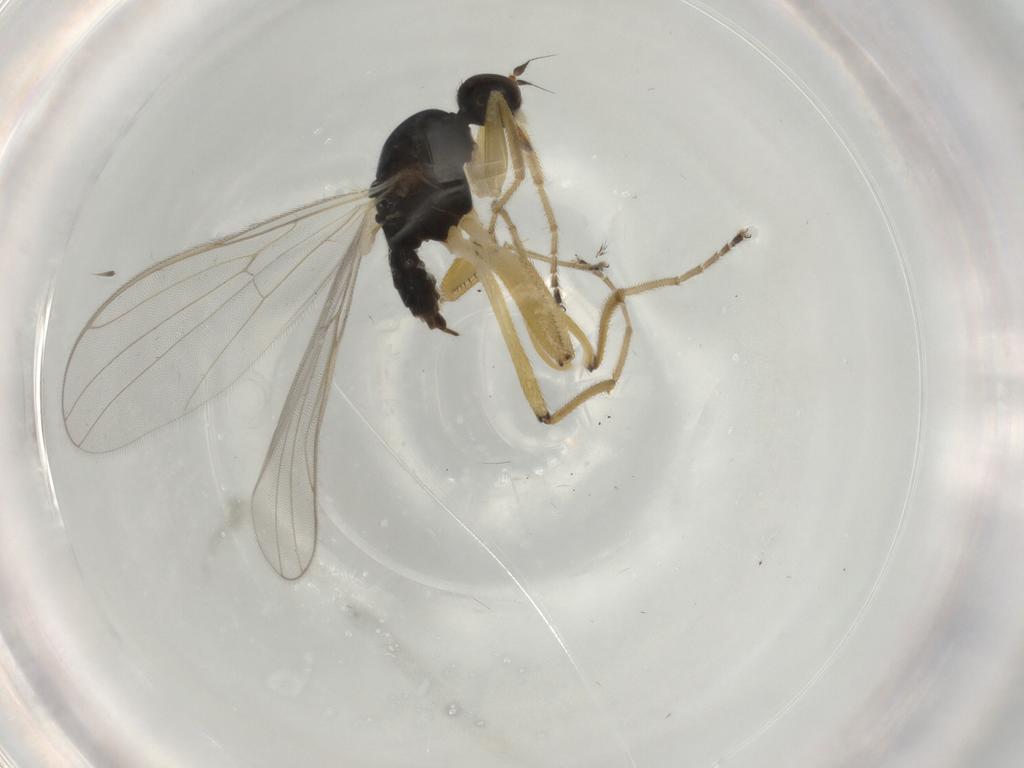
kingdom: Animalia
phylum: Arthropoda
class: Insecta
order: Diptera
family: Hybotidae
